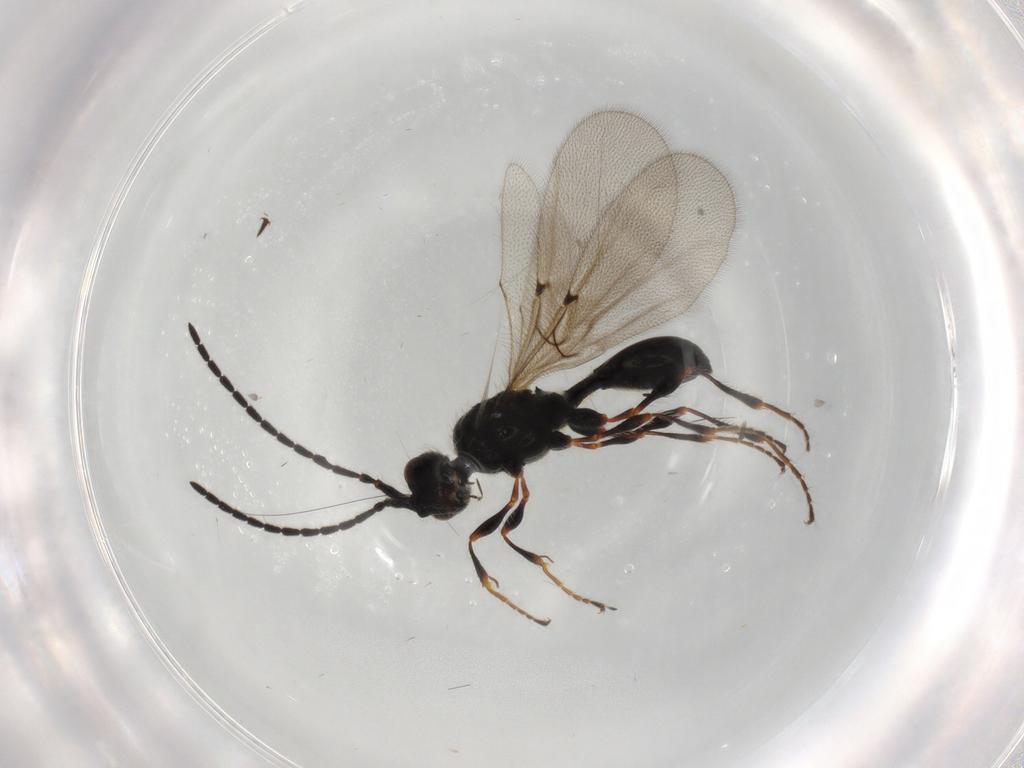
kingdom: Animalia
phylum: Arthropoda
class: Insecta
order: Hymenoptera
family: Diapriidae
